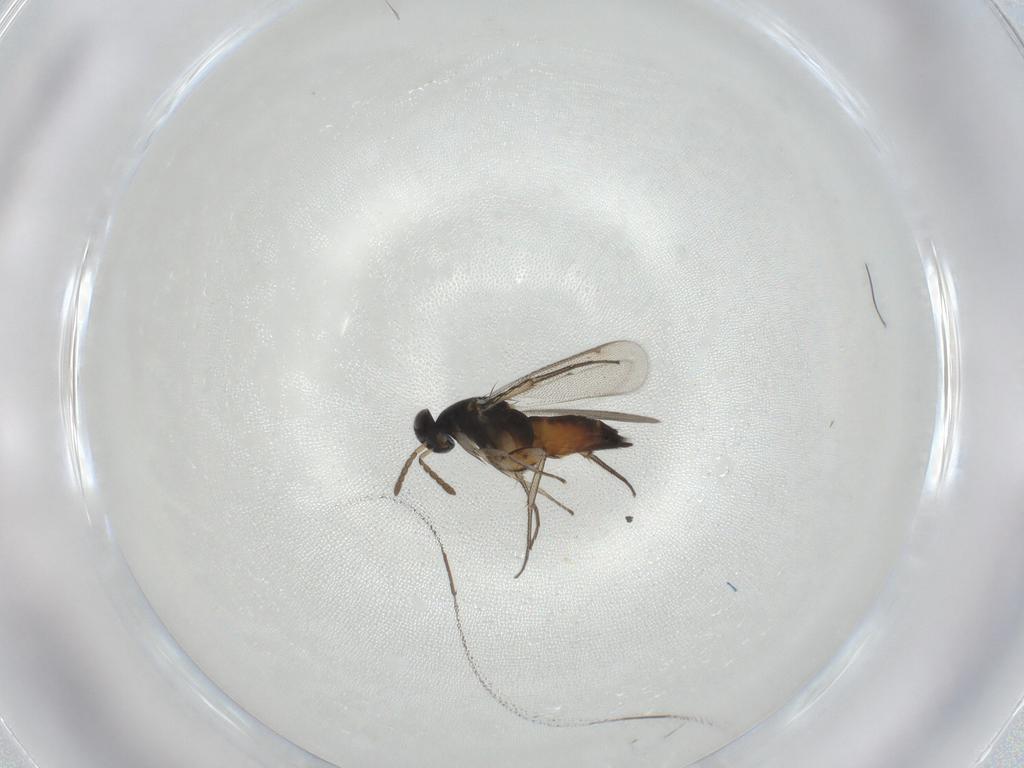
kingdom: Animalia
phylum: Arthropoda
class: Insecta
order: Hymenoptera
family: Eulophidae
